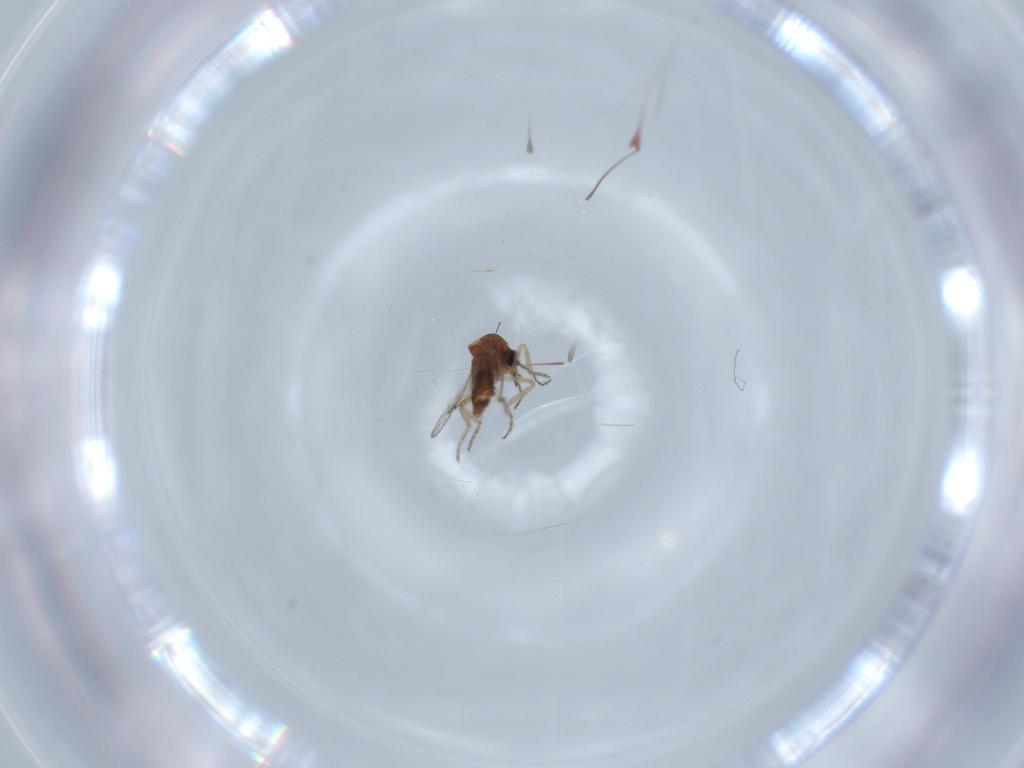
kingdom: Animalia
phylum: Arthropoda
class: Insecta
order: Diptera
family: Ceratopogonidae
